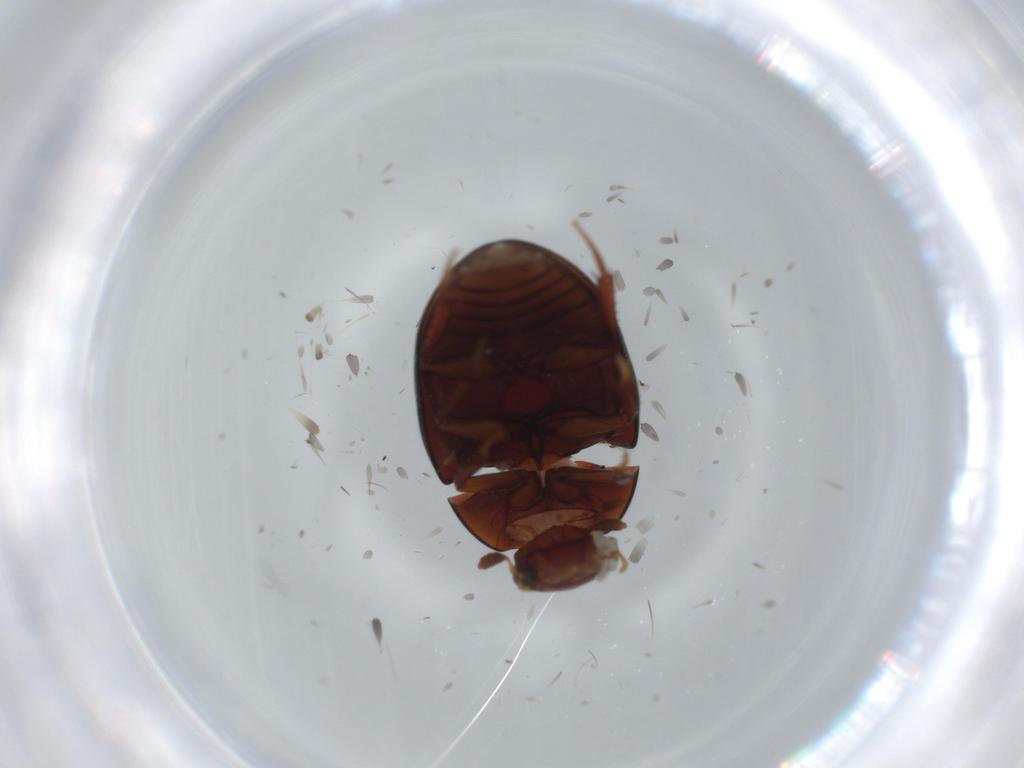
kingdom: Animalia
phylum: Arthropoda
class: Insecta
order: Coleoptera
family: Hydrophilidae
